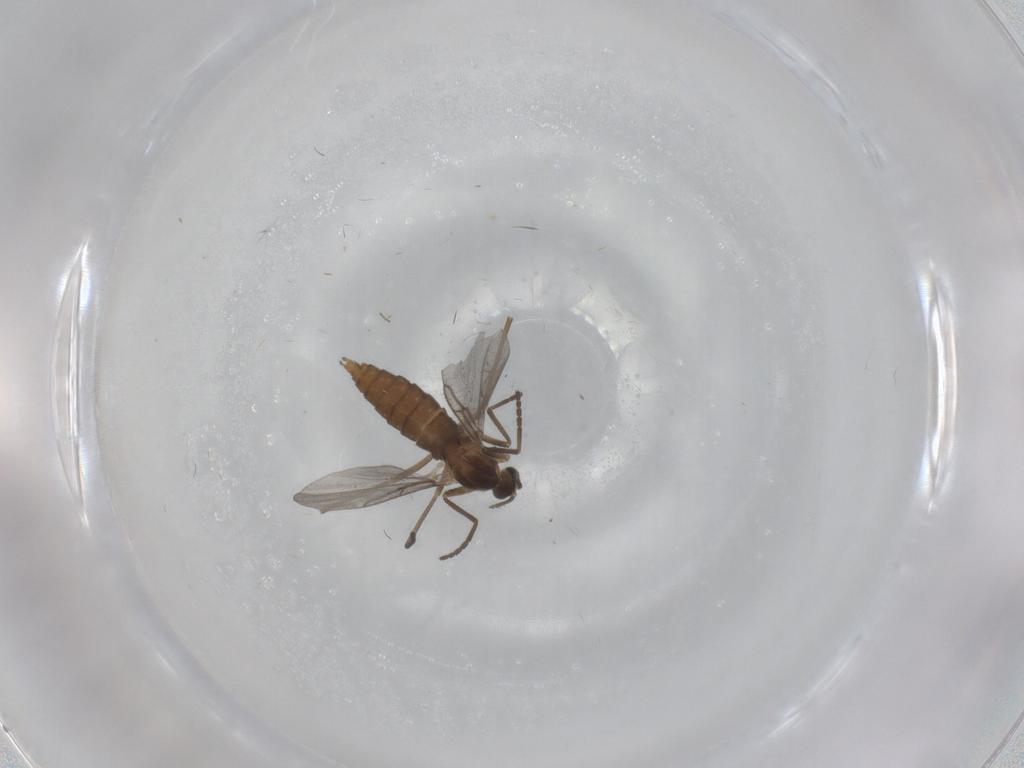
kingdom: Animalia
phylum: Arthropoda
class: Insecta
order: Diptera
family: Cecidomyiidae
